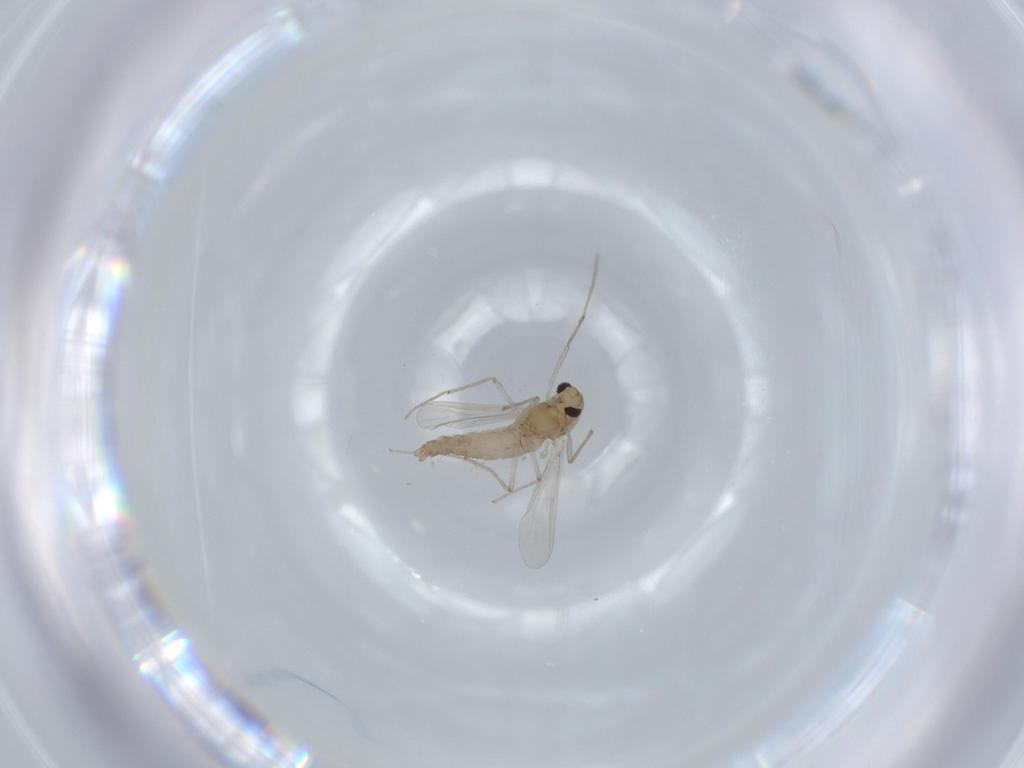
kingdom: Animalia
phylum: Arthropoda
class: Insecta
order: Diptera
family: Chironomidae
